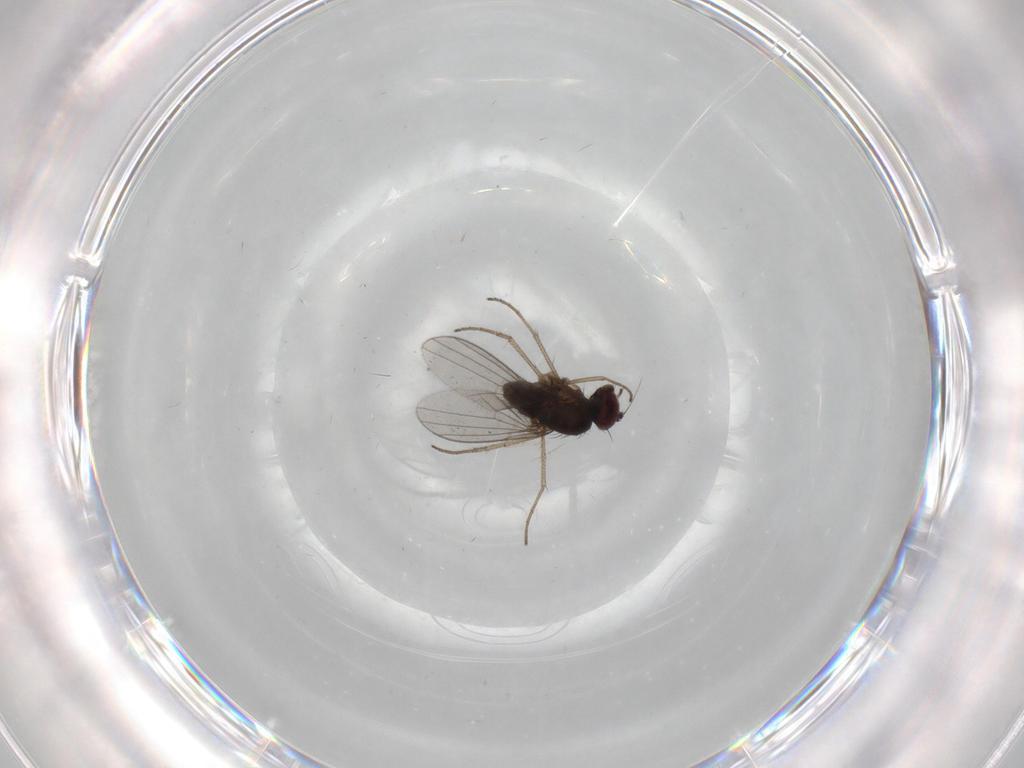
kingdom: Animalia
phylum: Arthropoda
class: Insecta
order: Diptera
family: Dolichopodidae
